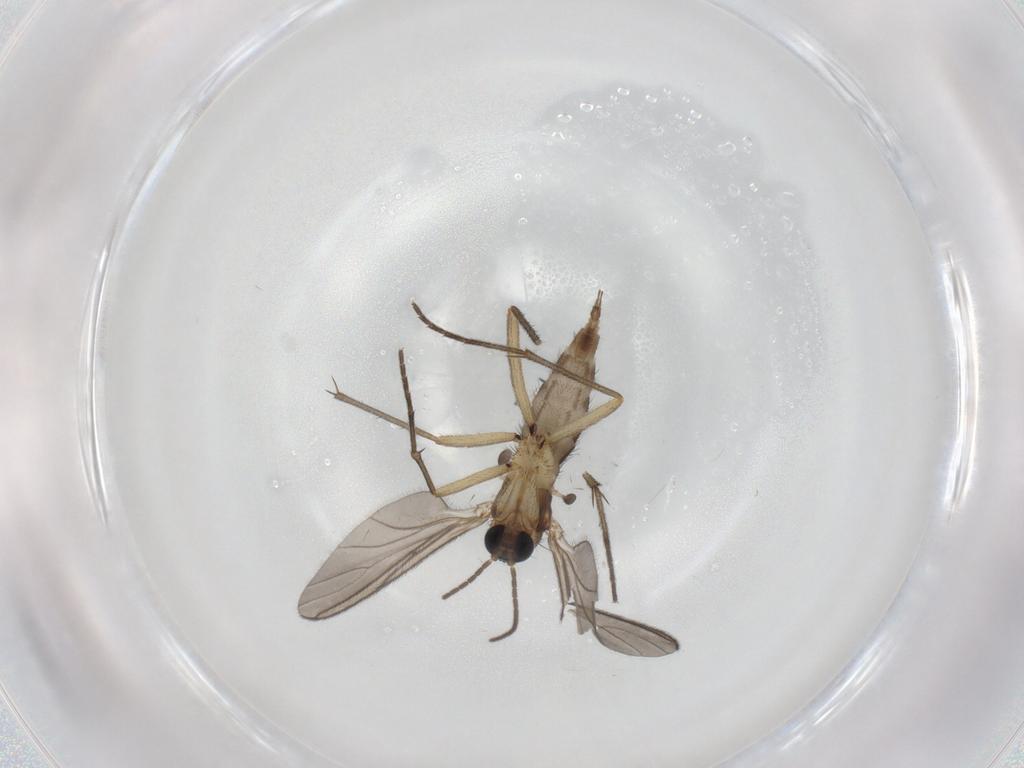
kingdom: Animalia
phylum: Arthropoda
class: Insecta
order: Diptera
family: Sciaridae
